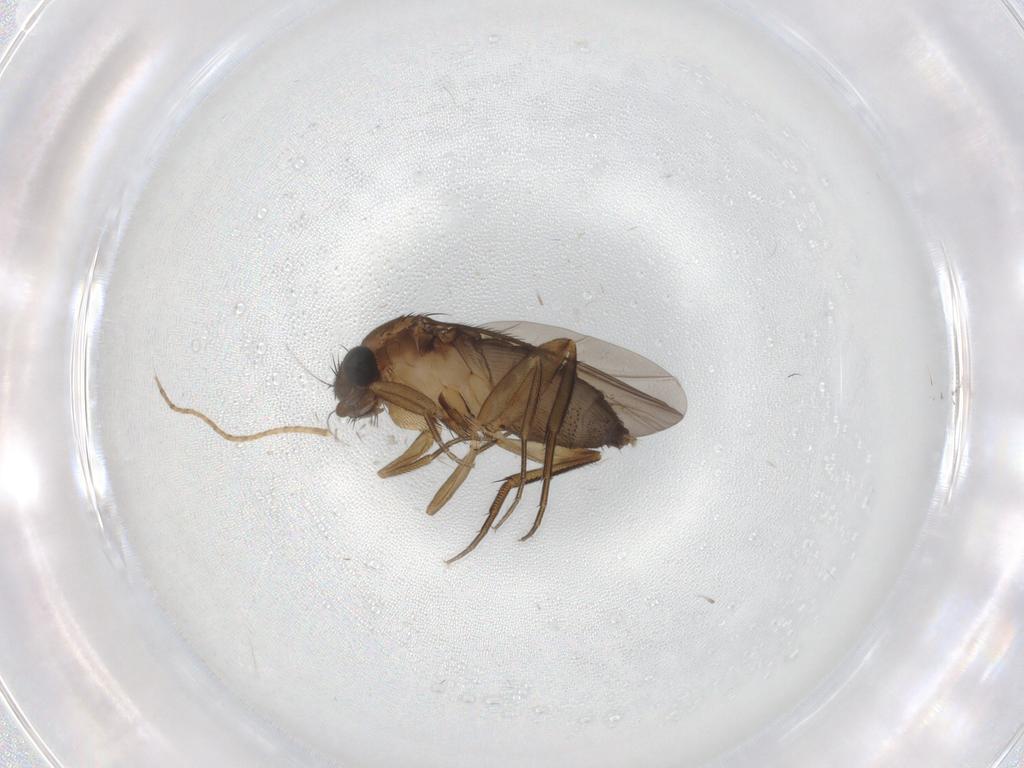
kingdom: Animalia
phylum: Arthropoda
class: Insecta
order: Diptera
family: Phoridae
